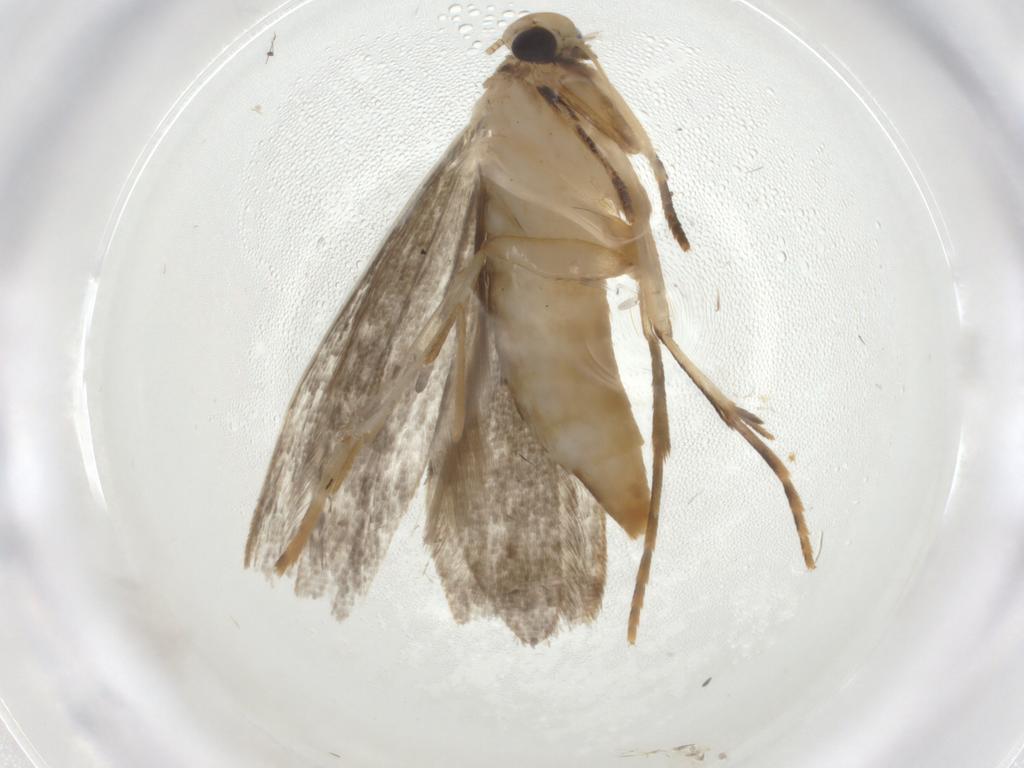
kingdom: Animalia
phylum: Arthropoda
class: Insecta
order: Lepidoptera
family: Tineidae
